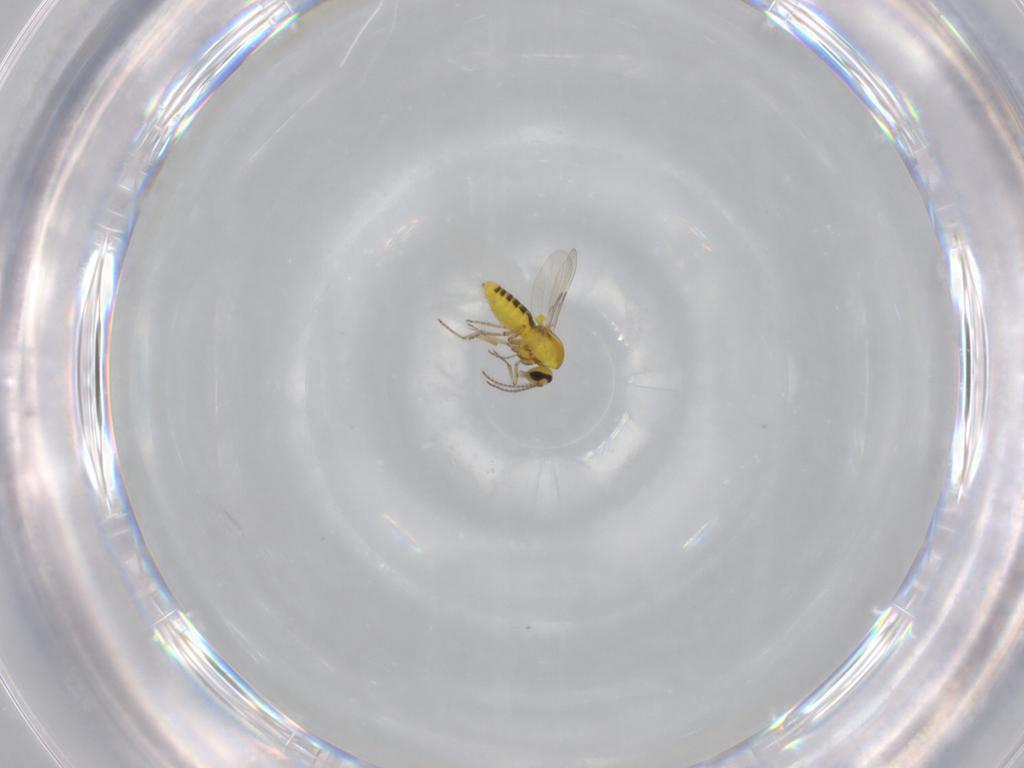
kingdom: Animalia
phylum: Arthropoda
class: Insecta
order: Diptera
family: Ceratopogonidae
